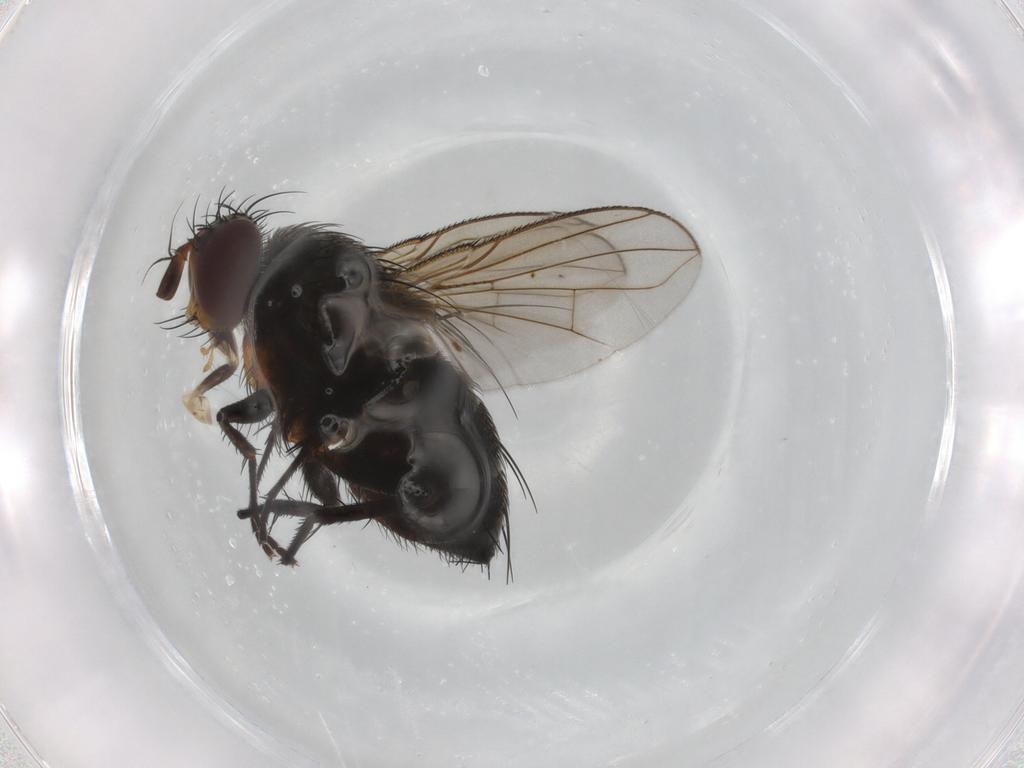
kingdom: Animalia
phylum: Arthropoda
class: Insecta
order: Diptera
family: Tachinidae
